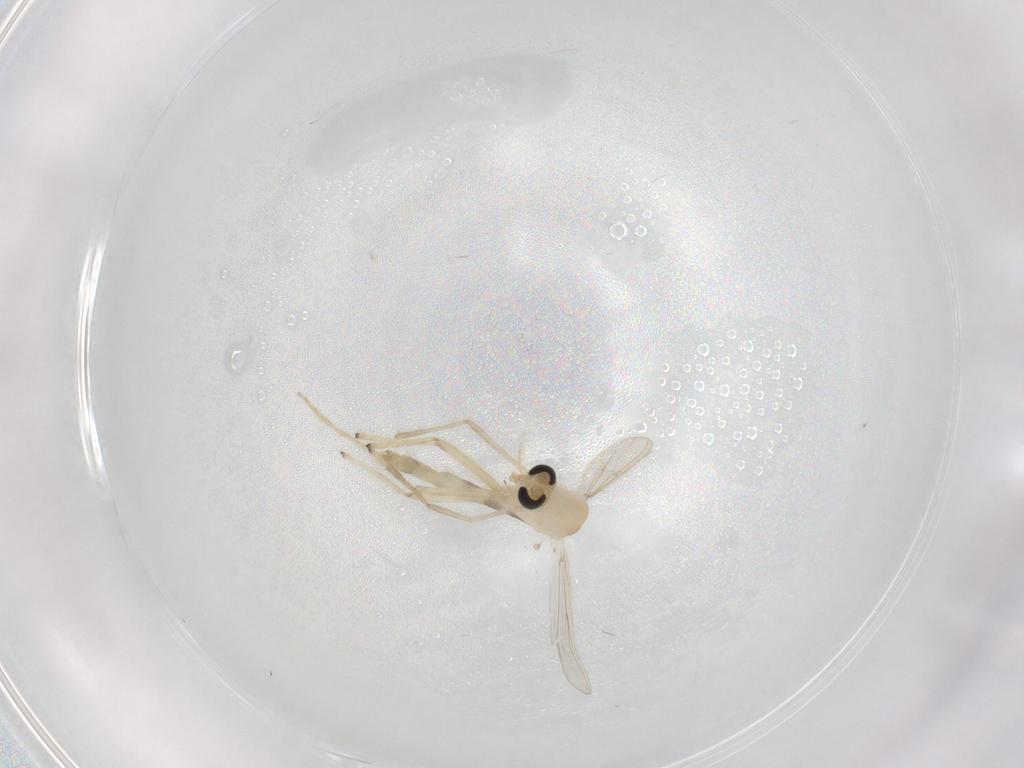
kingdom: Animalia
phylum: Arthropoda
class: Insecta
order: Diptera
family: Chironomidae
